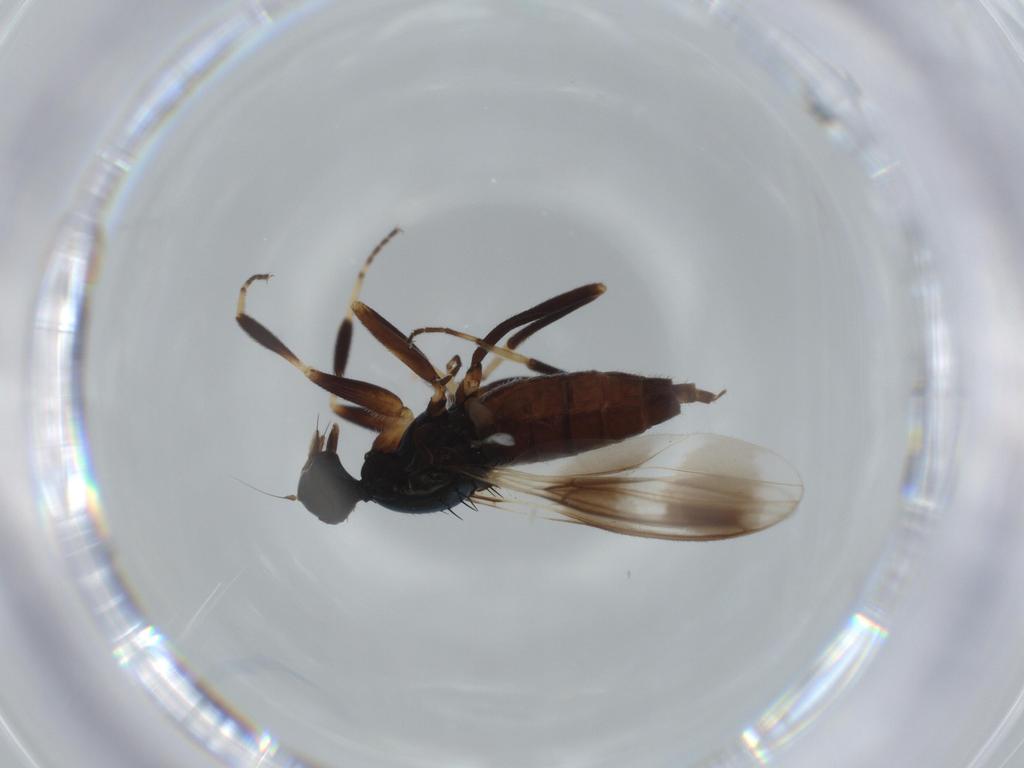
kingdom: Animalia
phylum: Arthropoda
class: Insecta
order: Diptera
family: Hybotidae
